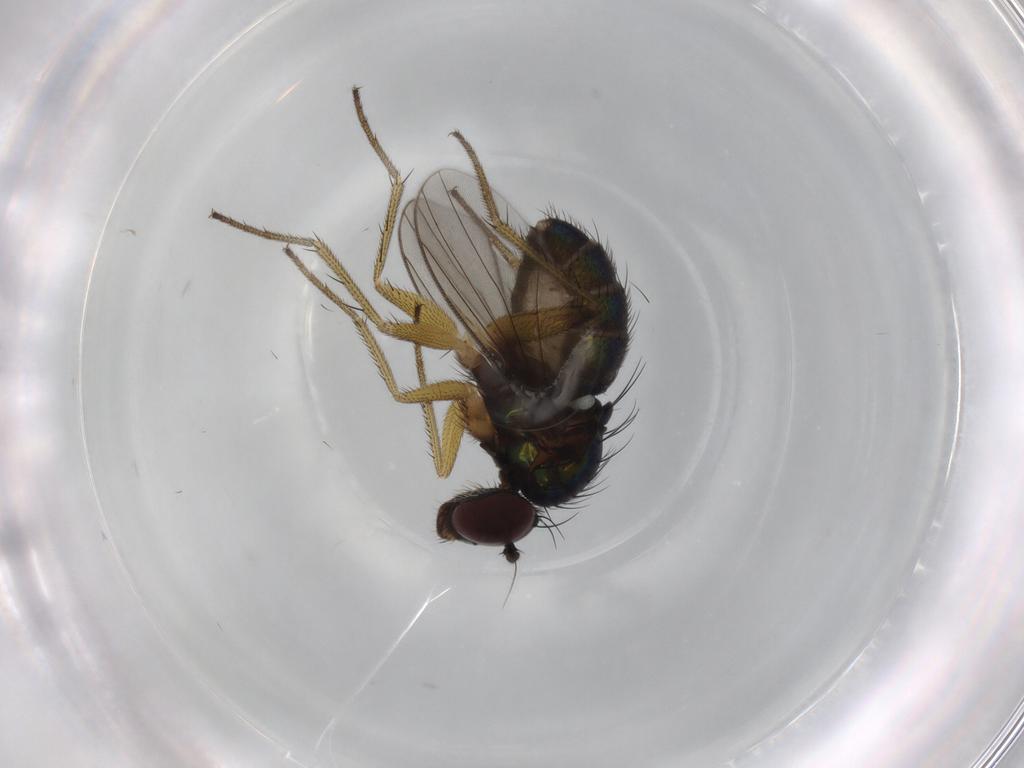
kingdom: Animalia
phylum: Arthropoda
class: Insecta
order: Diptera
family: Dolichopodidae
